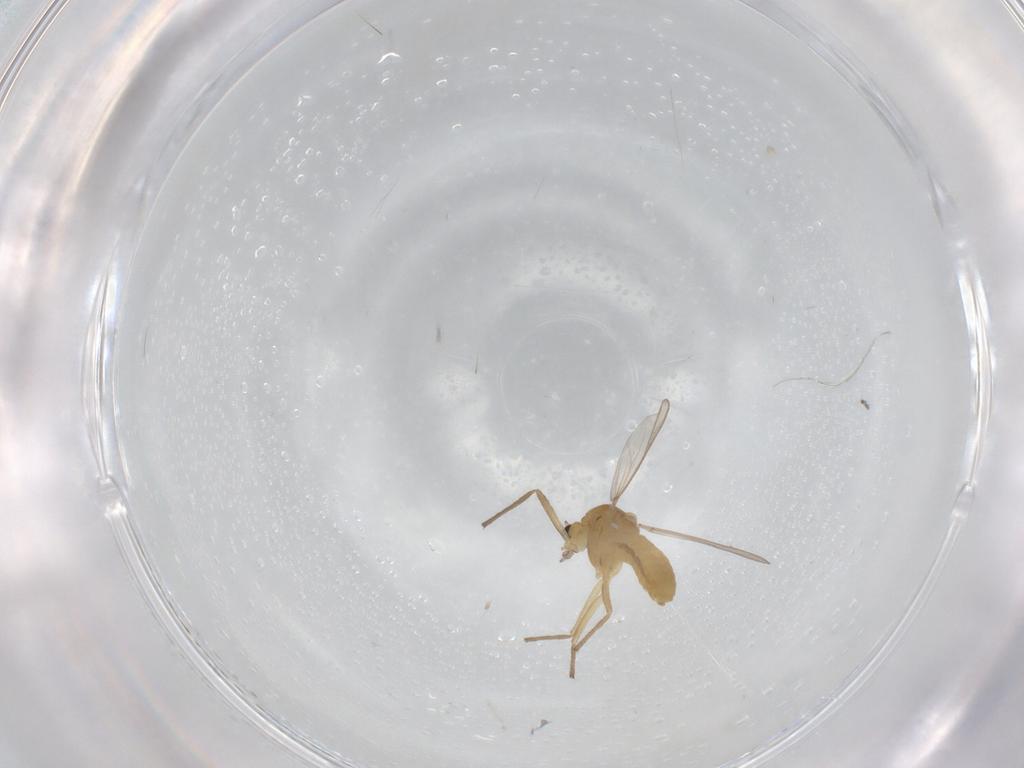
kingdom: Animalia
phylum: Arthropoda
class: Insecta
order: Diptera
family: Chironomidae
